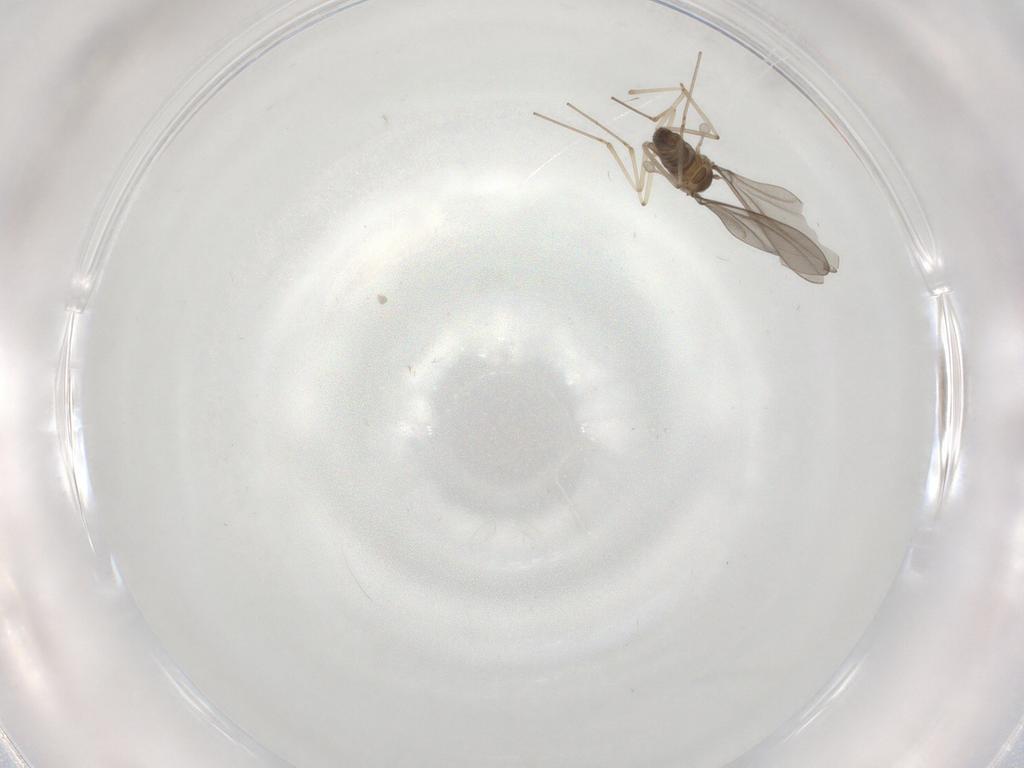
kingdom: Animalia
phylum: Arthropoda
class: Insecta
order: Diptera
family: Cecidomyiidae
